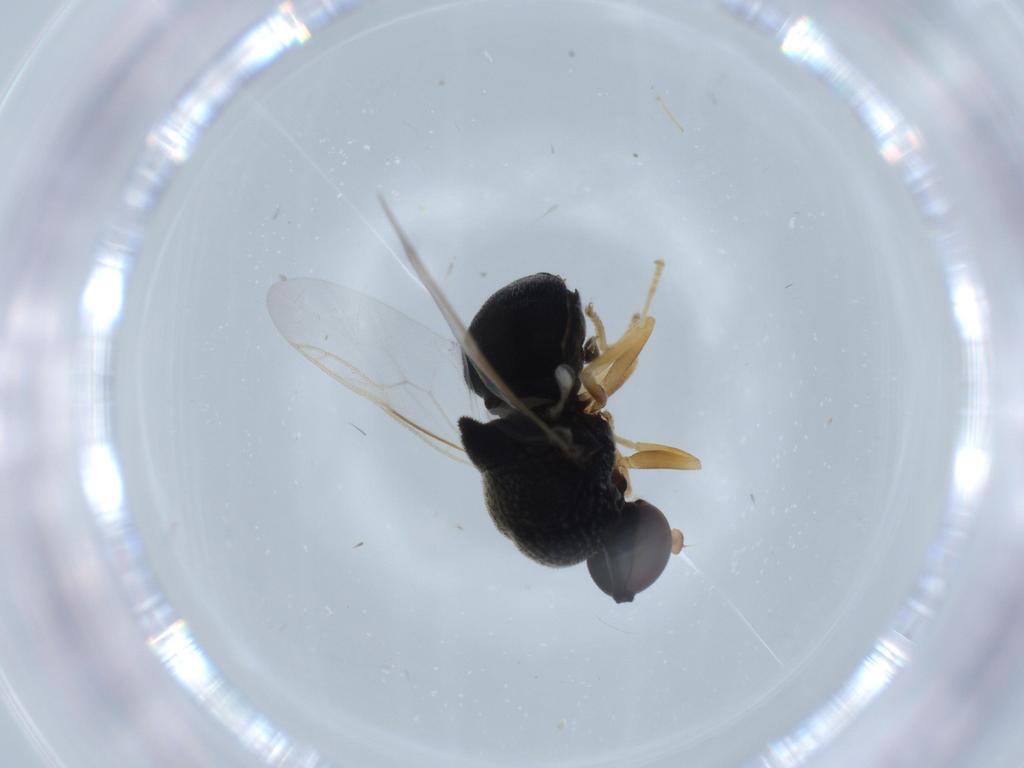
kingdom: Animalia
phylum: Arthropoda
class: Insecta
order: Diptera
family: Stratiomyidae
